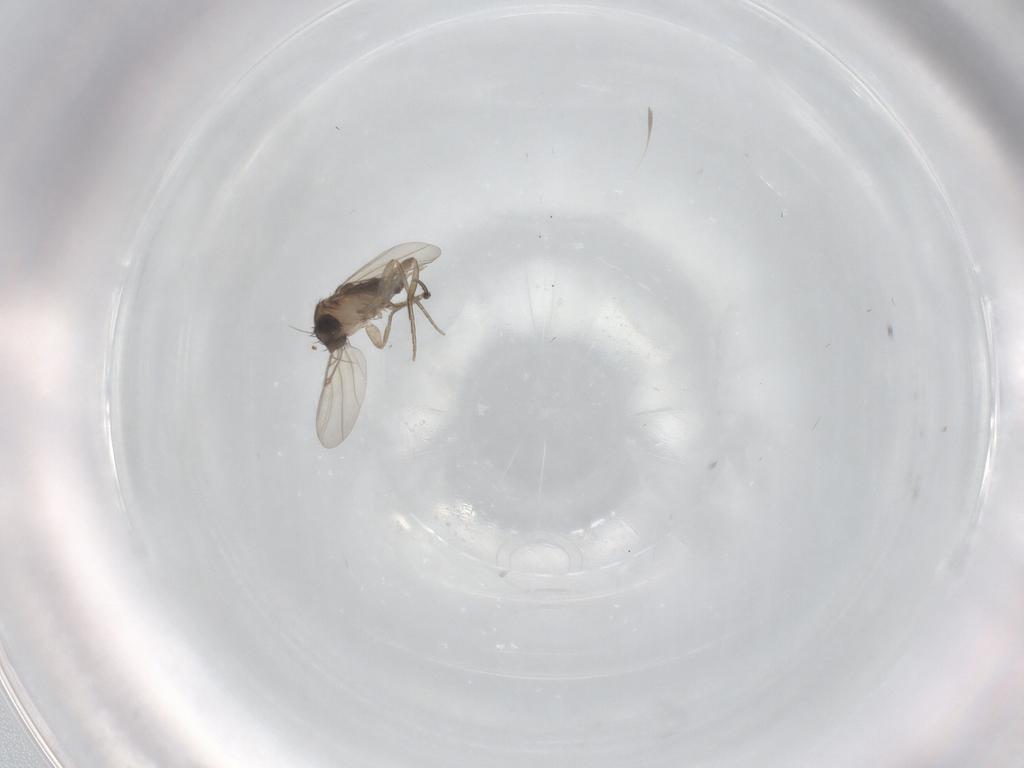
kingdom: Animalia
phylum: Arthropoda
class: Insecta
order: Diptera
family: Phoridae
